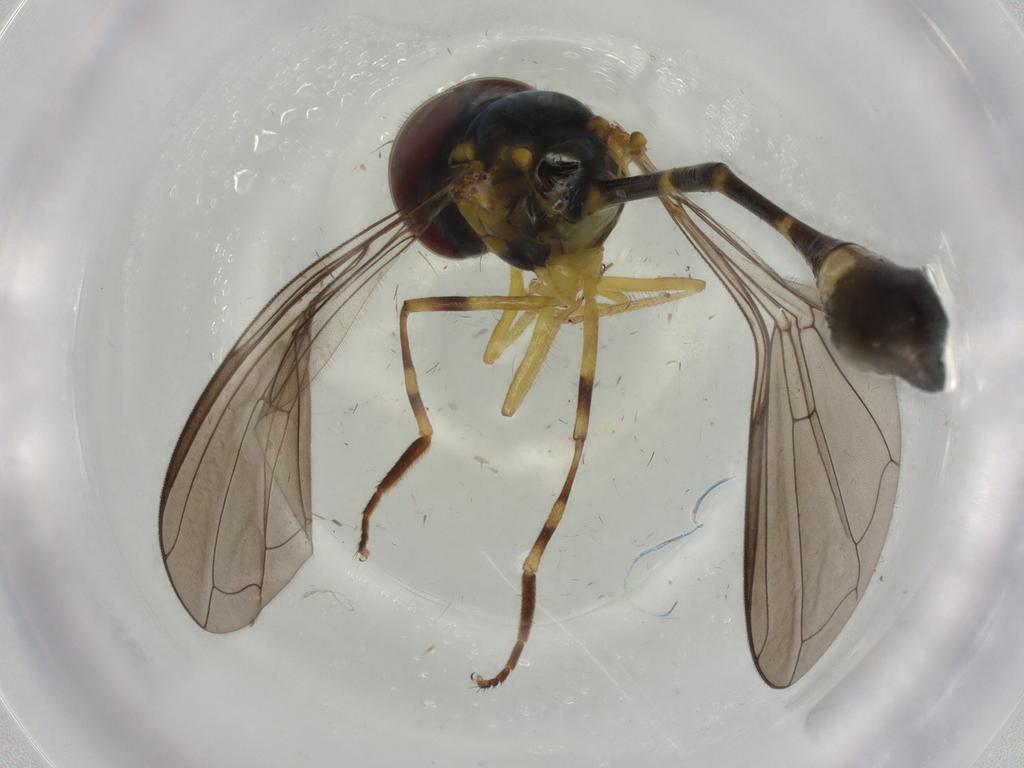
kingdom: Animalia
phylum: Arthropoda
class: Insecta
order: Diptera
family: Syrphidae
